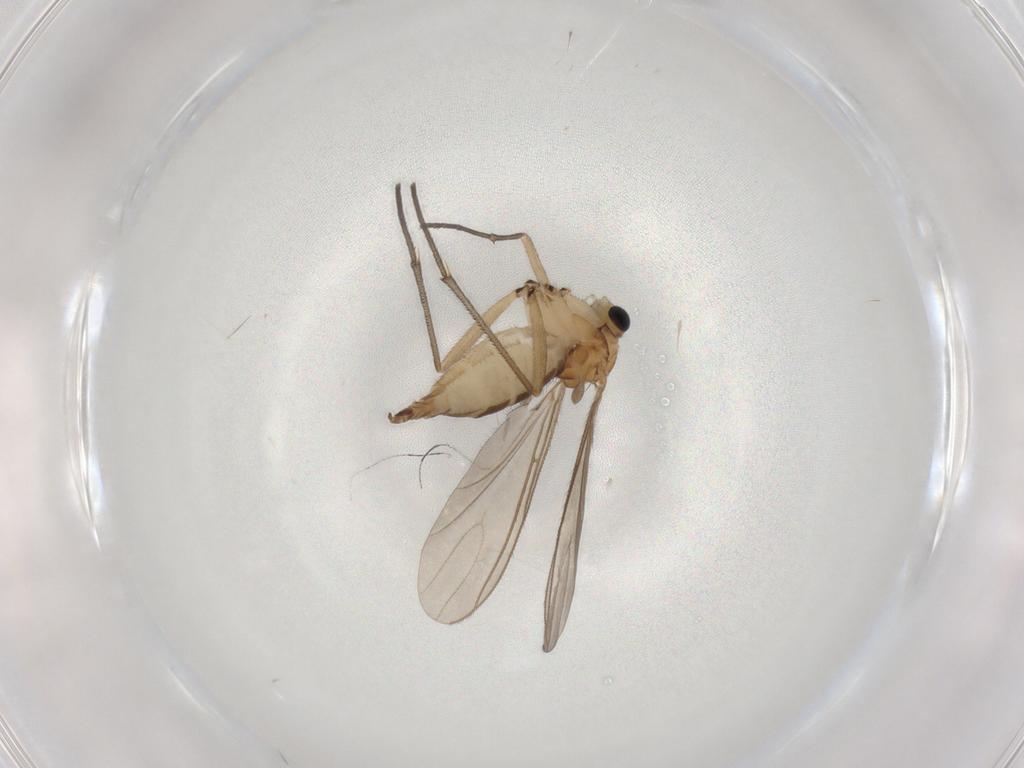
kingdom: Animalia
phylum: Arthropoda
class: Insecta
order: Diptera
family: Sciaridae
